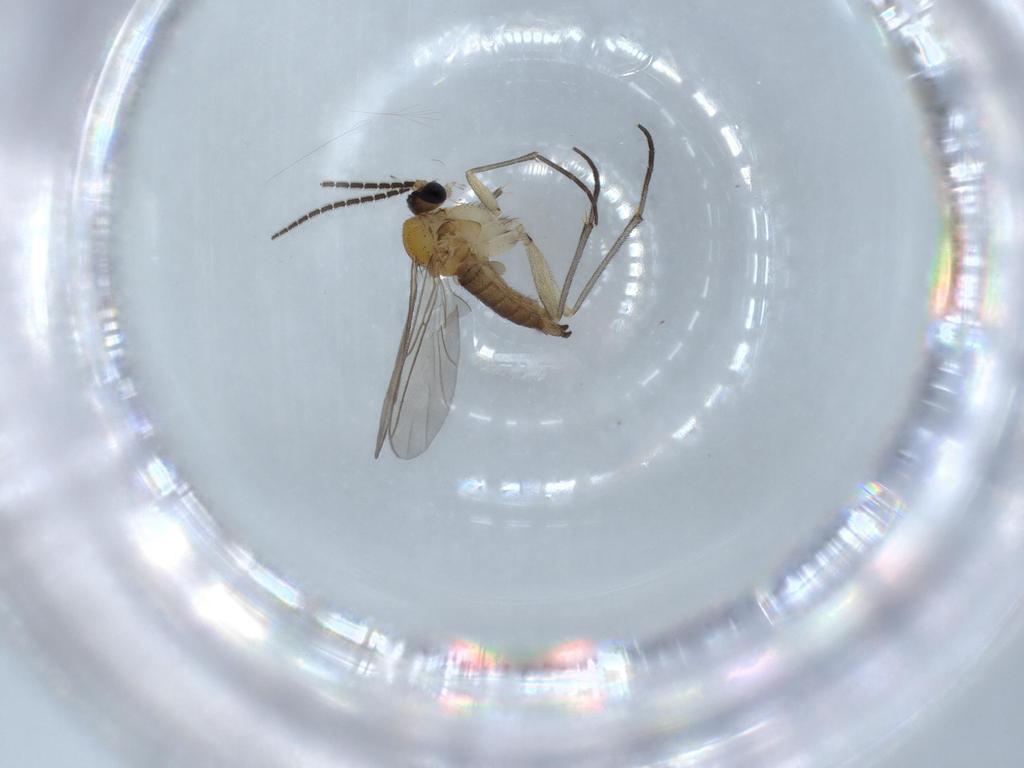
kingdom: Animalia
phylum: Arthropoda
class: Insecta
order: Diptera
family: Sciaridae
